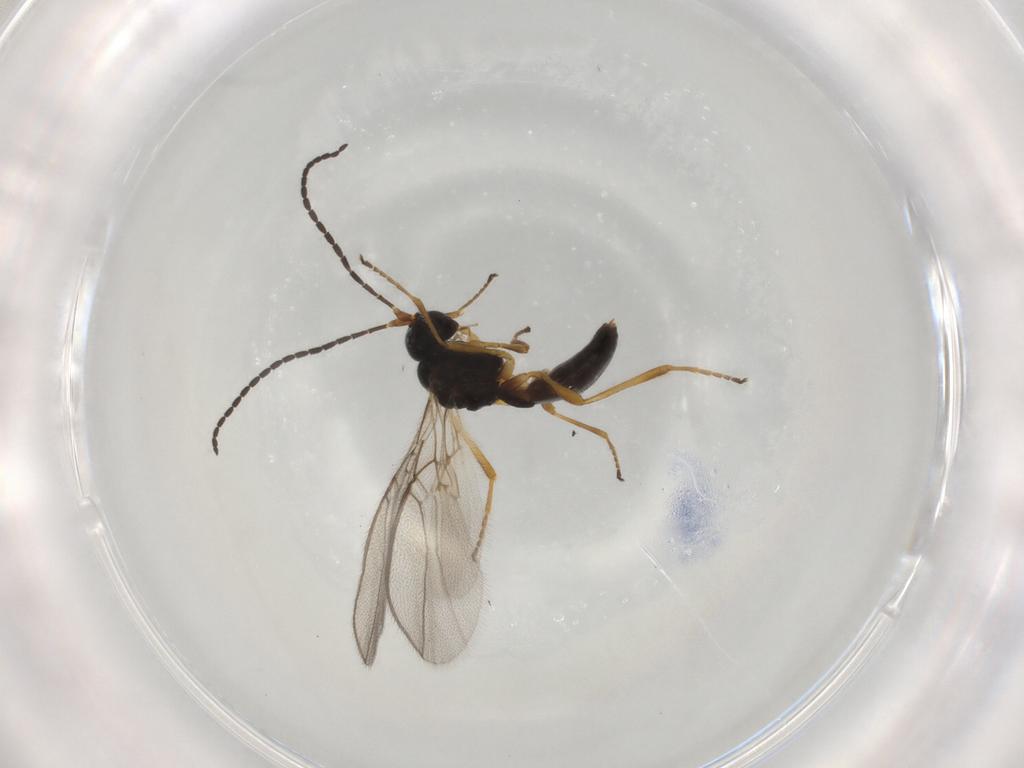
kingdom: Animalia
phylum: Arthropoda
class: Insecta
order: Hymenoptera
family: Braconidae
